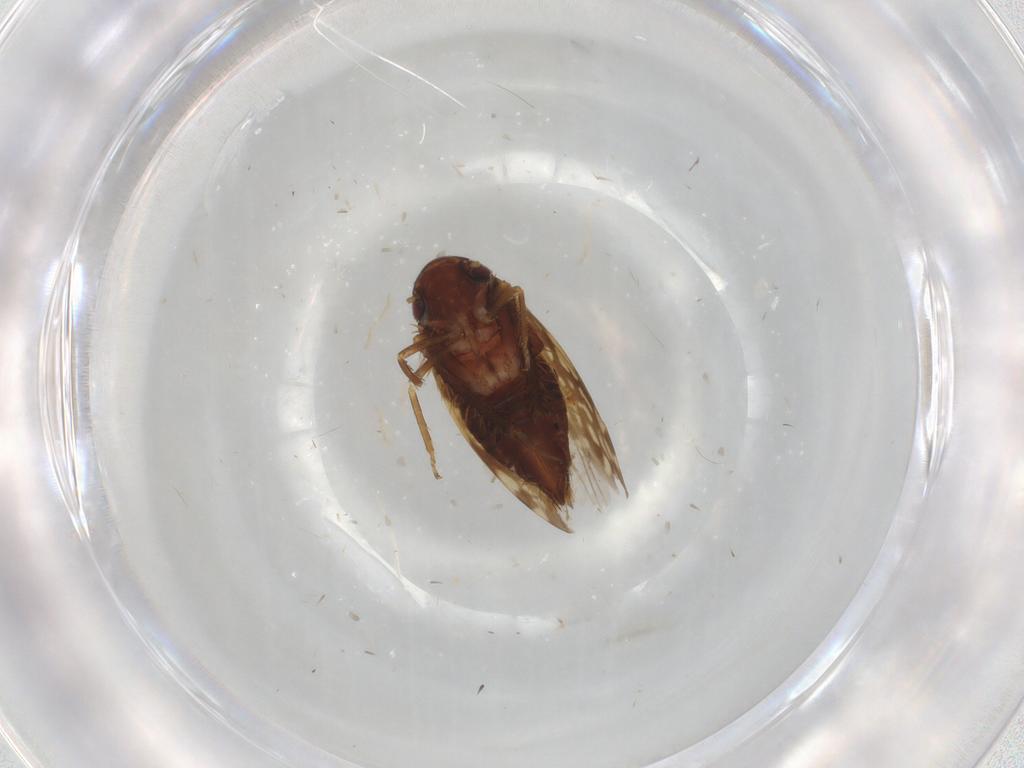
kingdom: Animalia
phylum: Arthropoda
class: Insecta
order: Hemiptera
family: Cicadellidae
